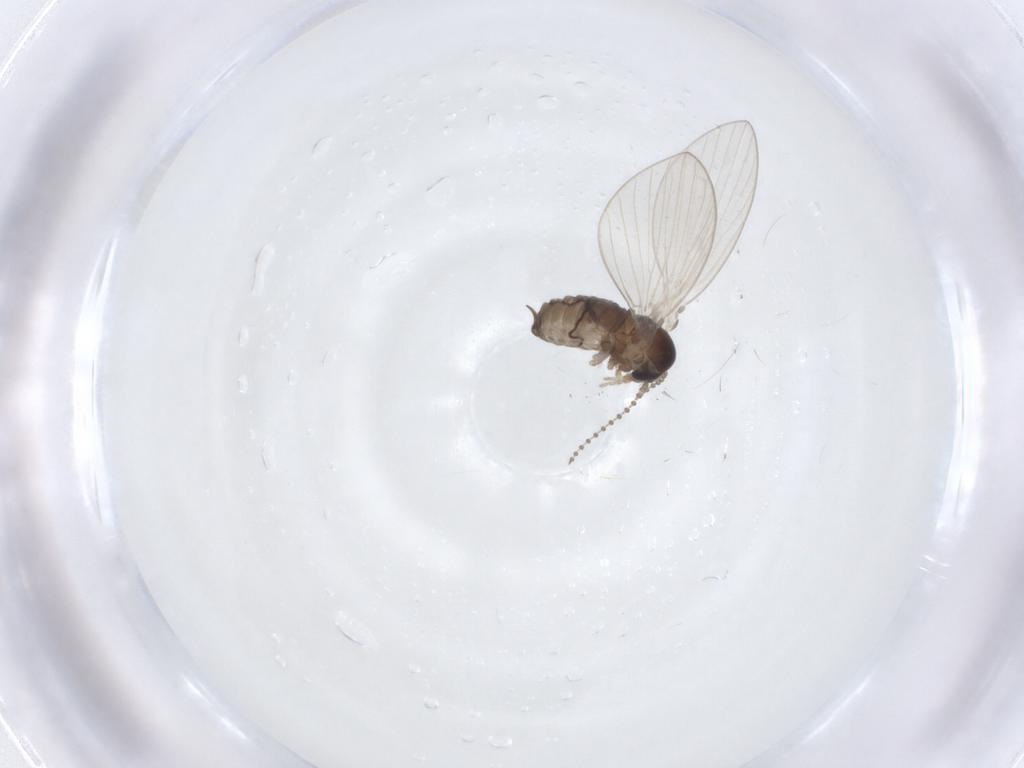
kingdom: Animalia
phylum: Arthropoda
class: Insecta
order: Diptera
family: Psychodidae
